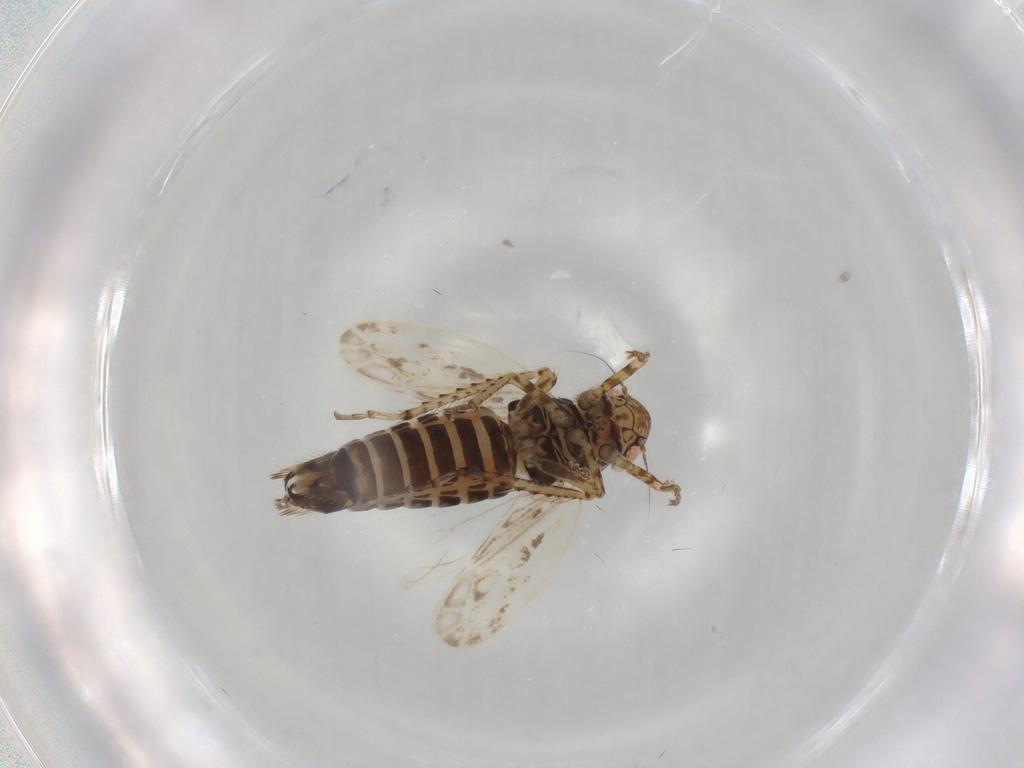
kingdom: Animalia
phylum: Arthropoda
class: Insecta
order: Hemiptera
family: Cicadellidae
